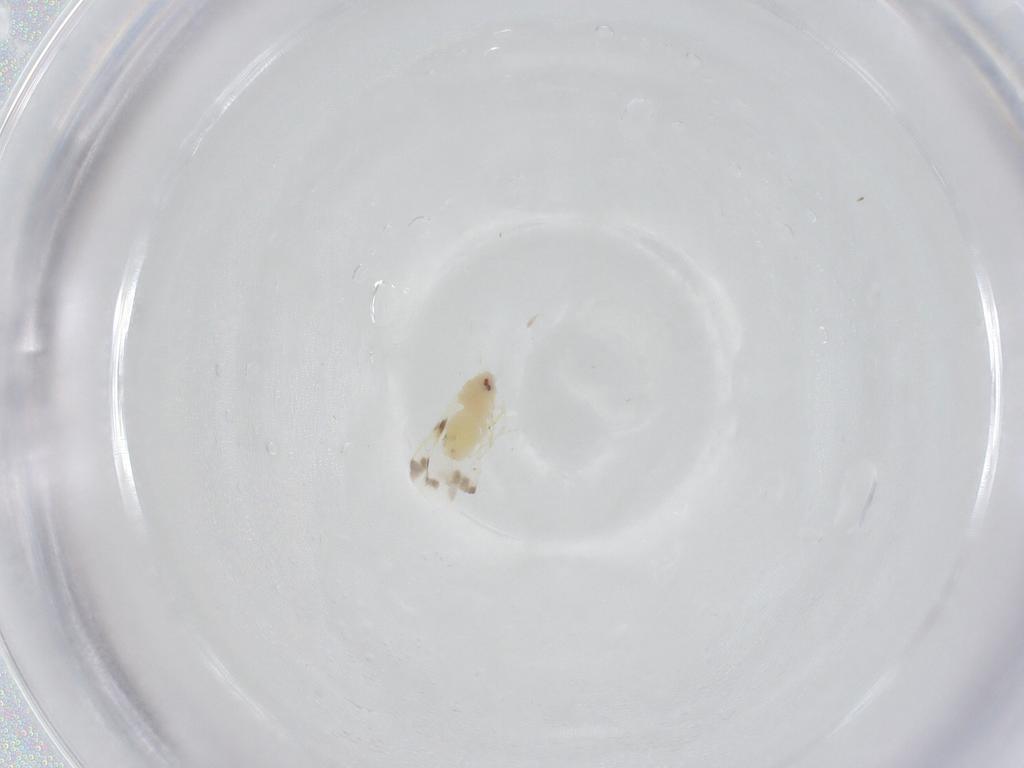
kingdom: Animalia
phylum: Arthropoda
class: Insecta
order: Hemiptera
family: Aleyrodidae
